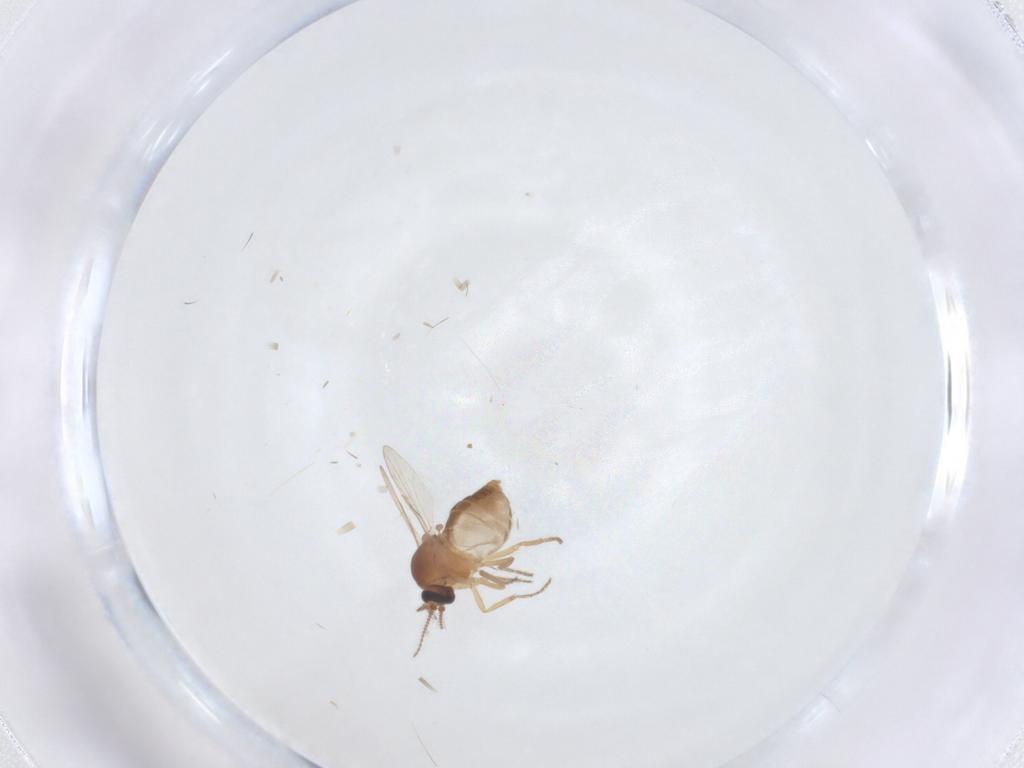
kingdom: Animalia
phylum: Arthropoda
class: Insecta
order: Diptera
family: Ceratopogonidae
